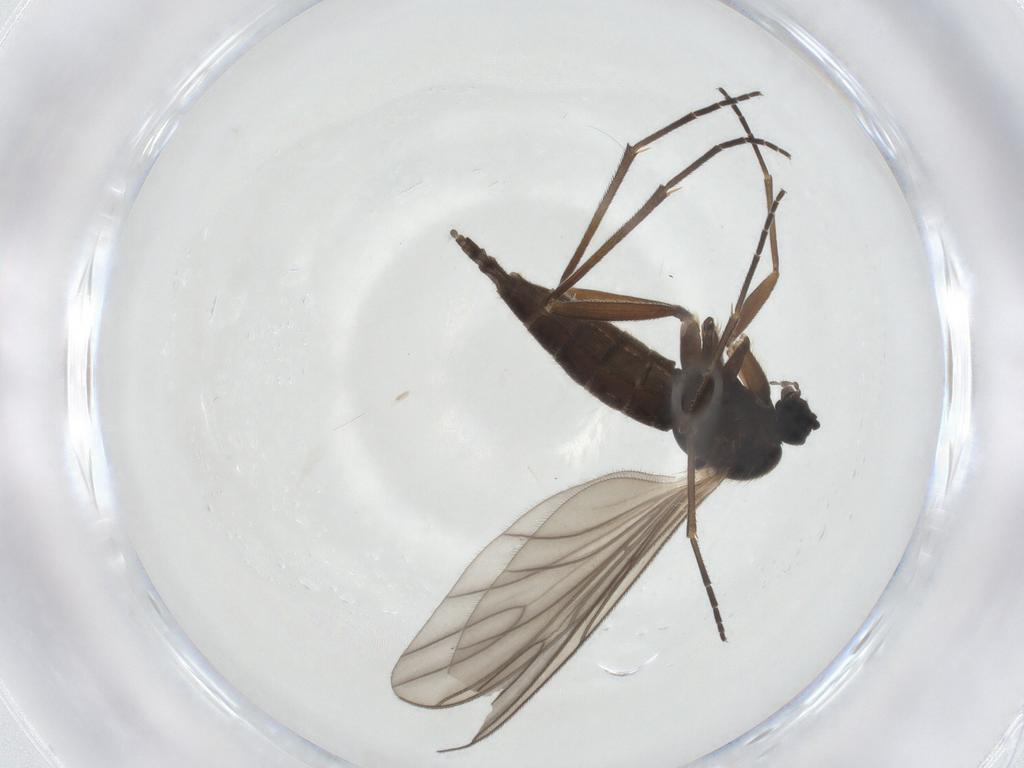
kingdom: Animalia
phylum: Arthropoda
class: Insecta
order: Diptera
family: Sciaridae
